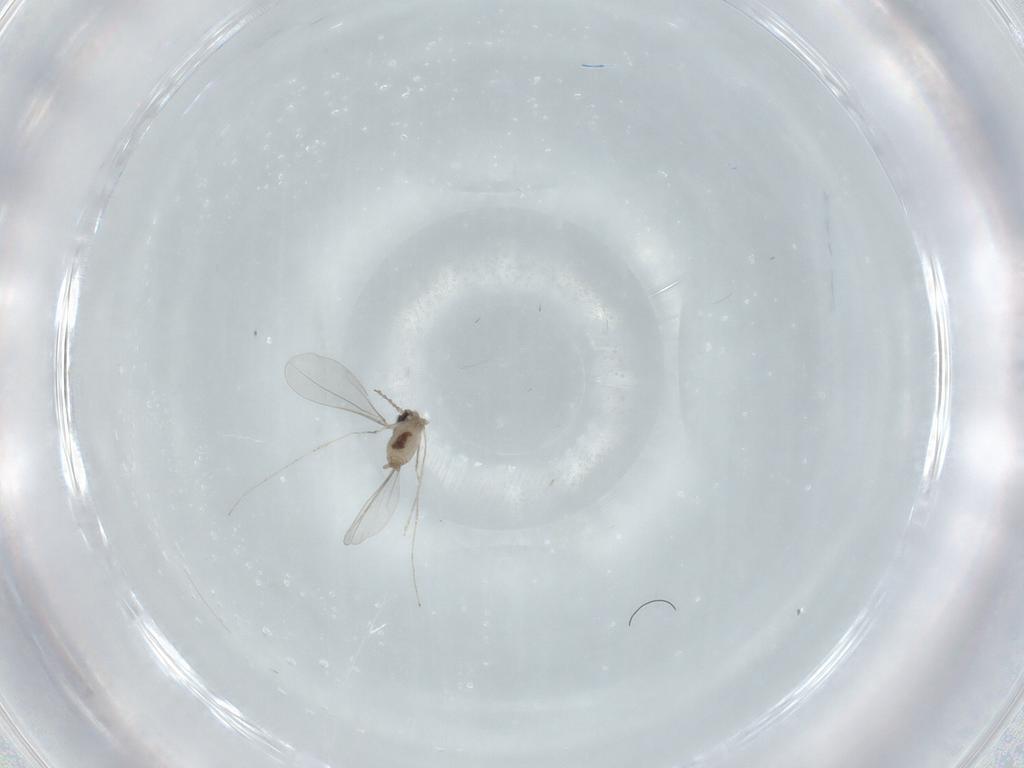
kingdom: Animalia
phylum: Arthropoda
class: Insecta
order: Diptera
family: Cecidomyiidae
